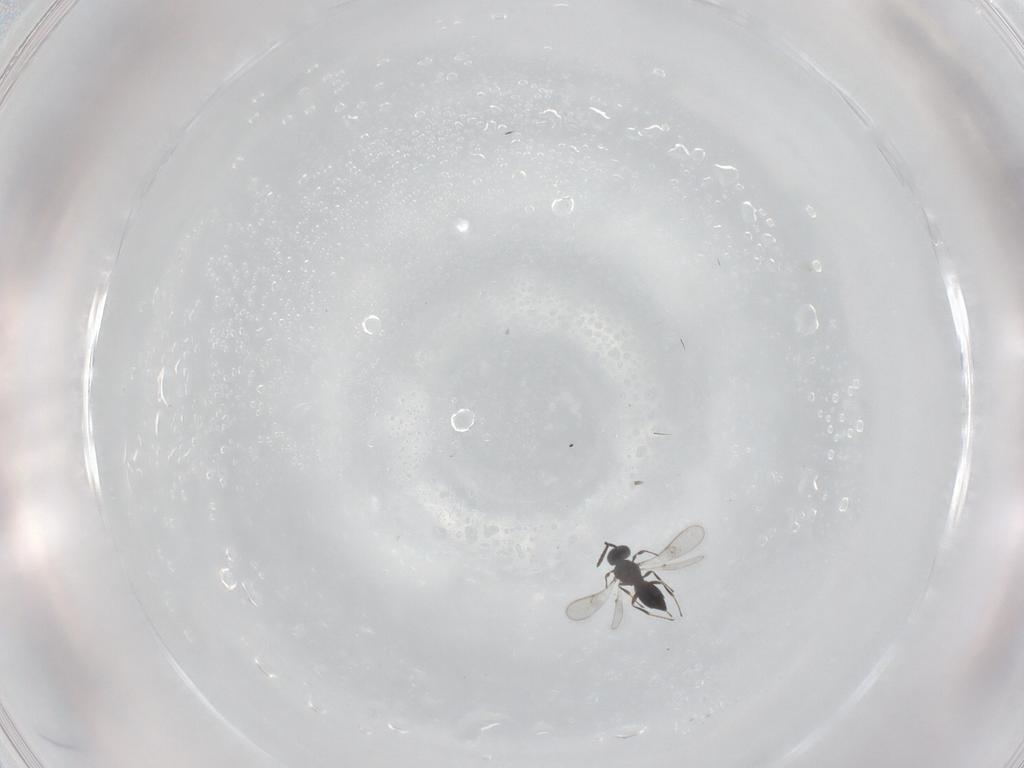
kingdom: Animalia
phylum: Arthropoda
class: Insecta
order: Hymenoptera
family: Scelionidae
